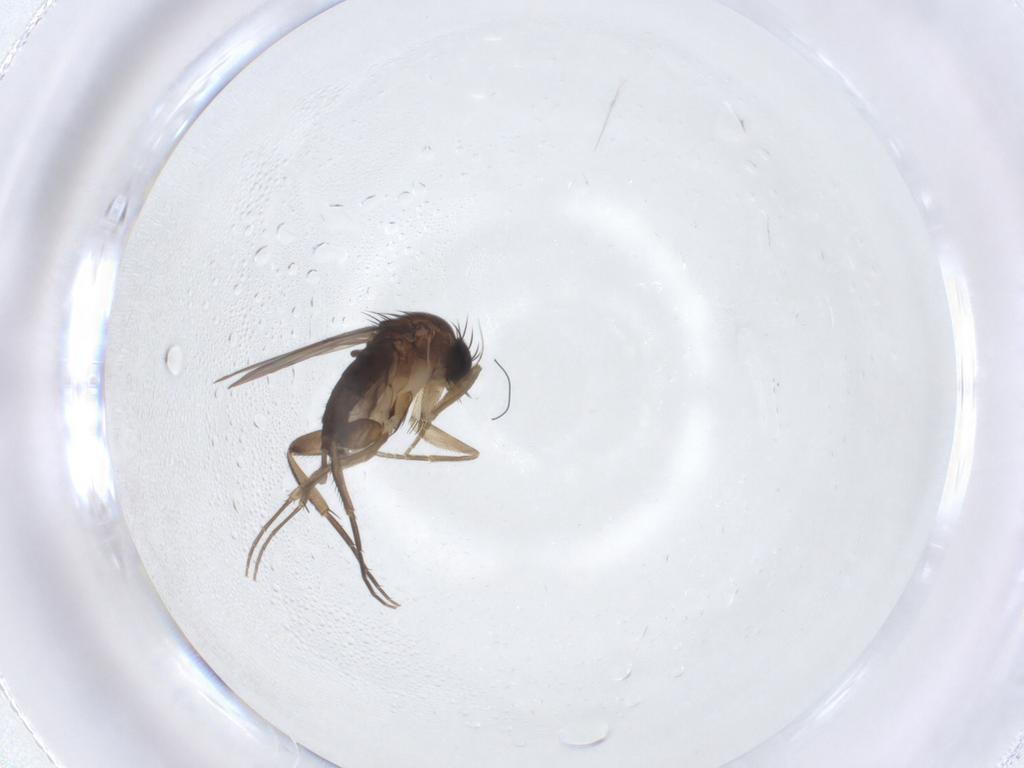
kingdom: Animalia
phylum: Arthropoda
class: Insecta
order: Diptera
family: Phoridae
